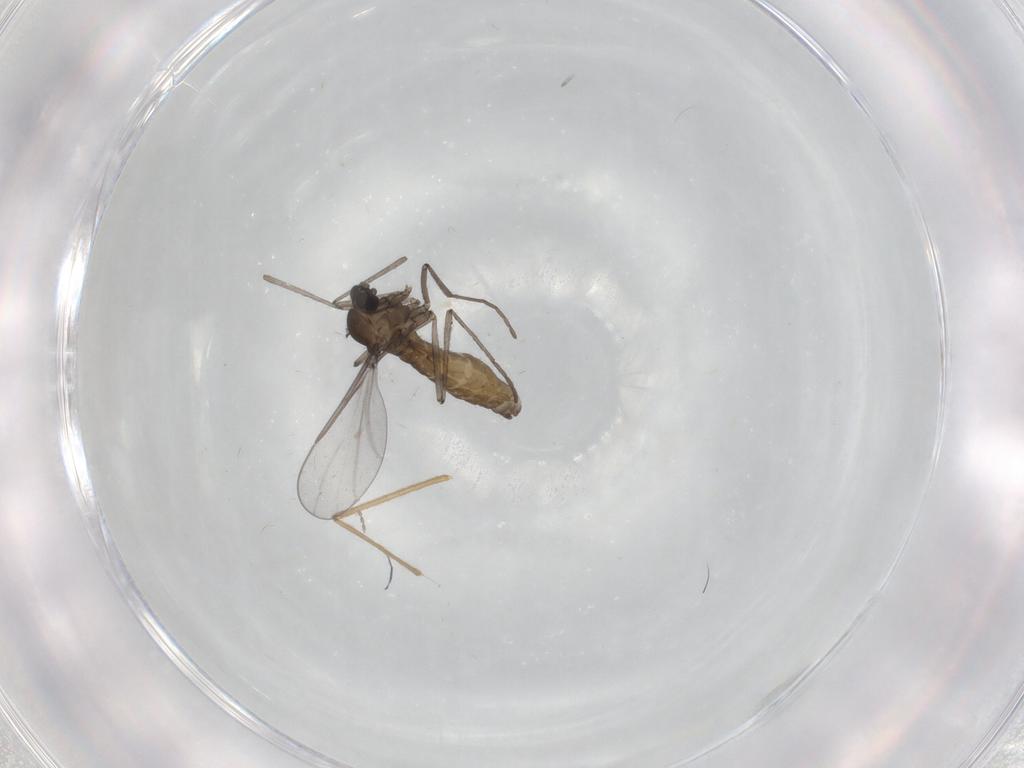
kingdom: Animalia
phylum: Arthropoda
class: Insecta
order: Diptera
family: Cecidomyiidae
